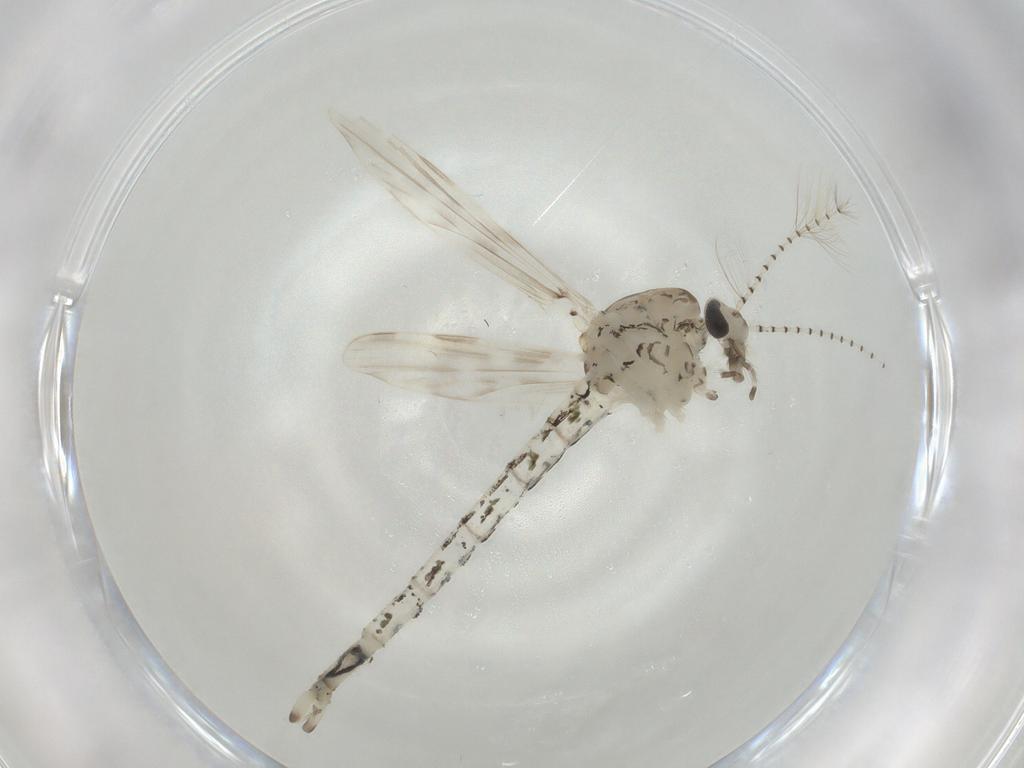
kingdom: Animalia
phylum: Arthropoda
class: Insecta
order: Diptera
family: Chaoboridae
